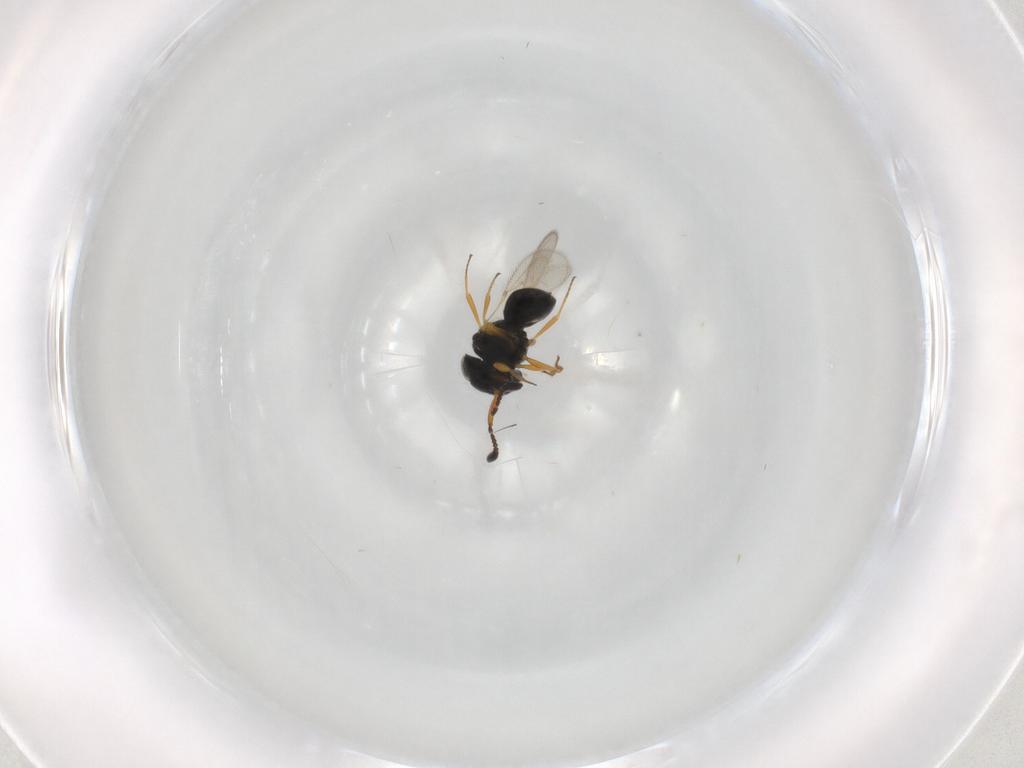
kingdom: Animalia
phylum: Arthropoda
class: Insecta
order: Hymenoptera
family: Scelionidae
